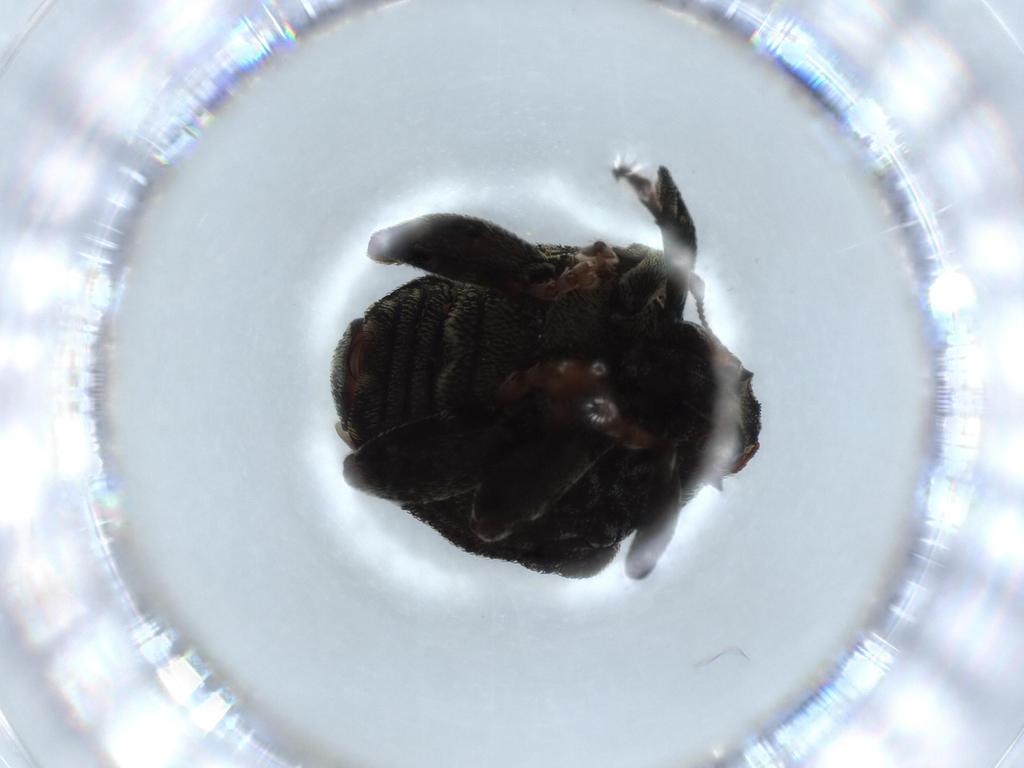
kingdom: Animalia
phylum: Arthropoda
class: Insecta
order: Coleoptera
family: Curculionidae
